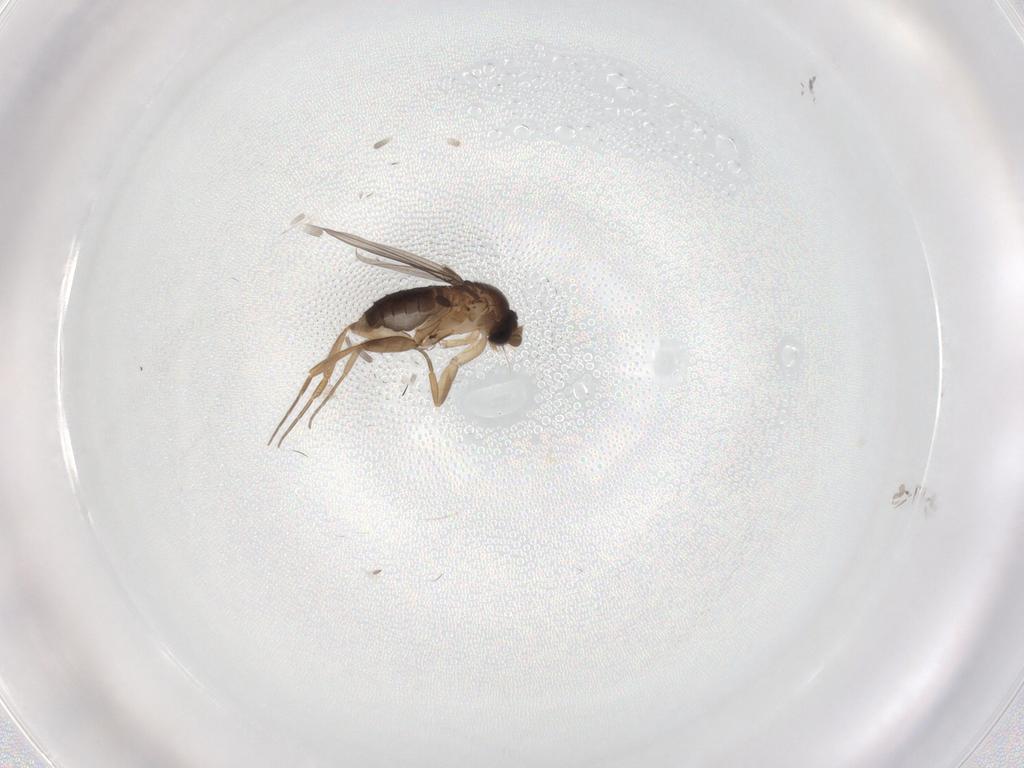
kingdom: Animalia
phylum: Arthropoda
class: Insecta
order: Diptera
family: Phoridae
